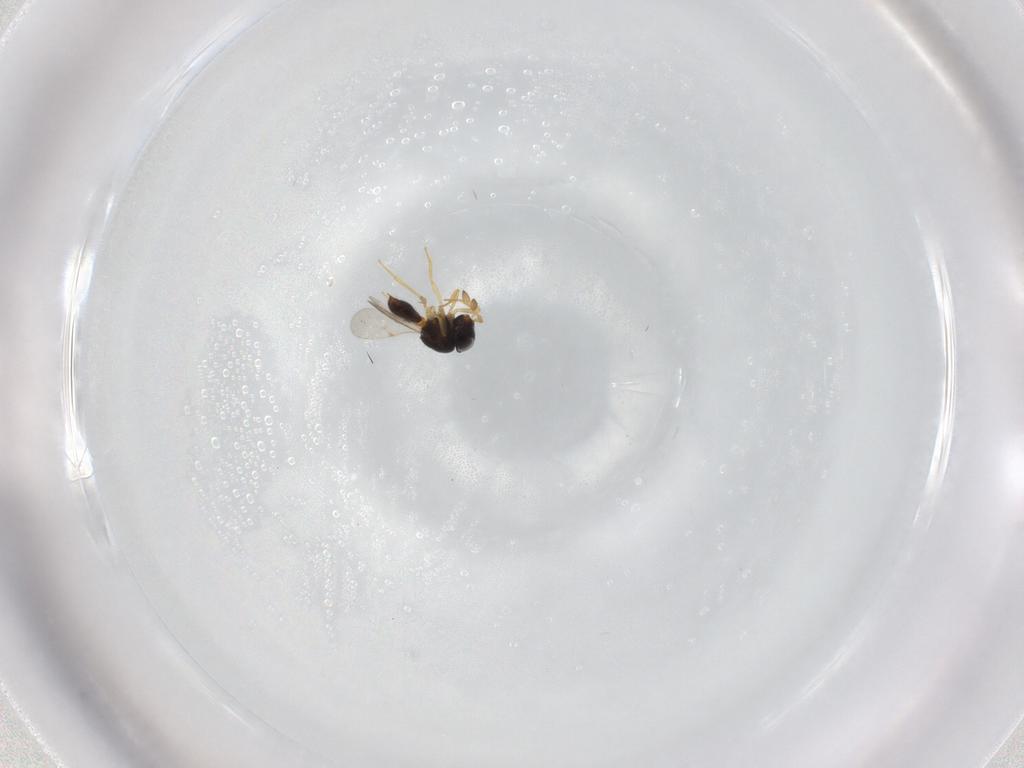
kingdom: Animalia
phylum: Arthropoda
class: Insecta
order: Hymenoptera
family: Scelionidae
